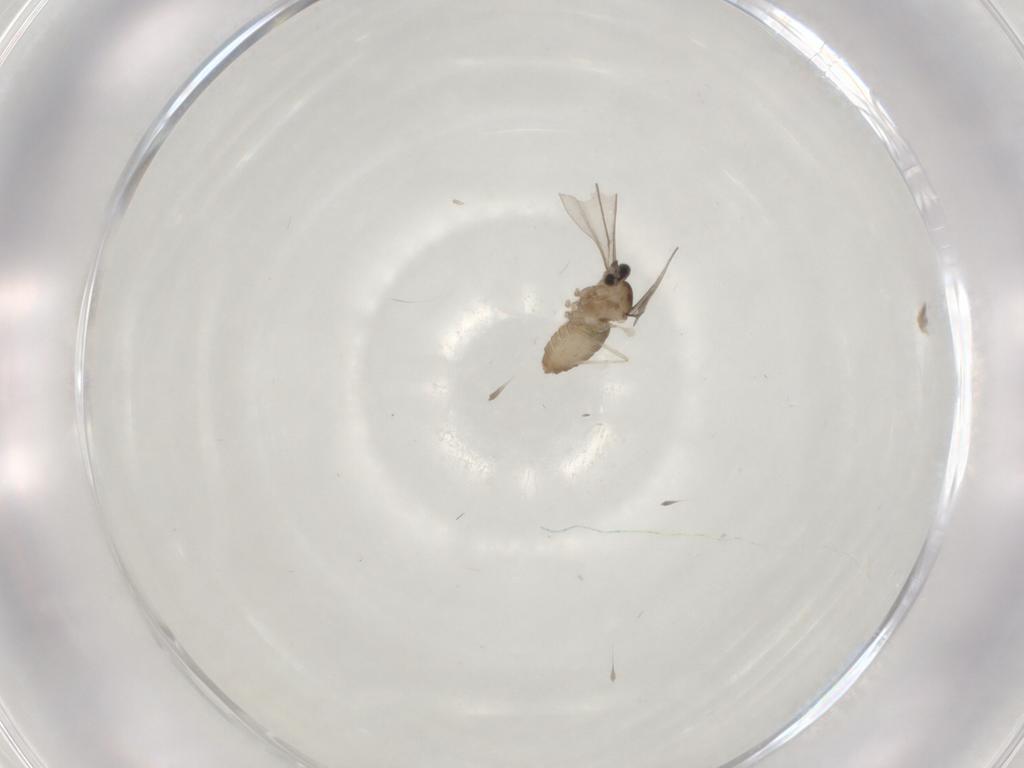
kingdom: Animalia
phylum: Arthropoda
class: Insecta
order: Diptera
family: Cecidomyiidae
